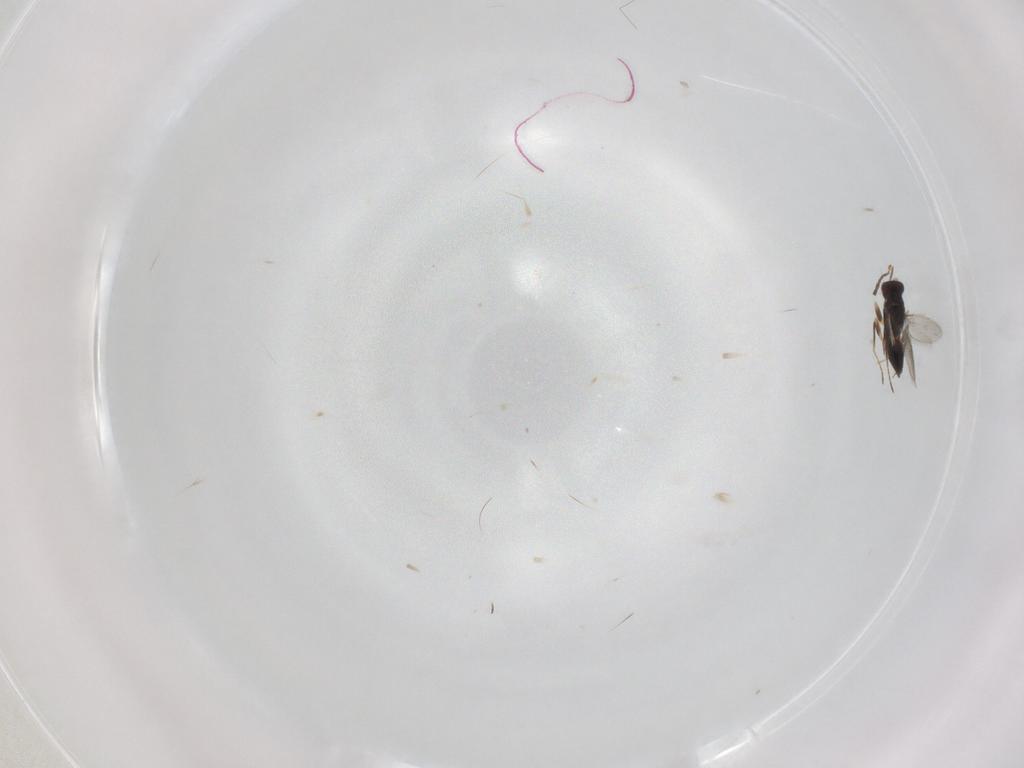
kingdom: Animalia
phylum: Arthropoda
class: Insecta
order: Hymenoptera
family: Mymaridae
